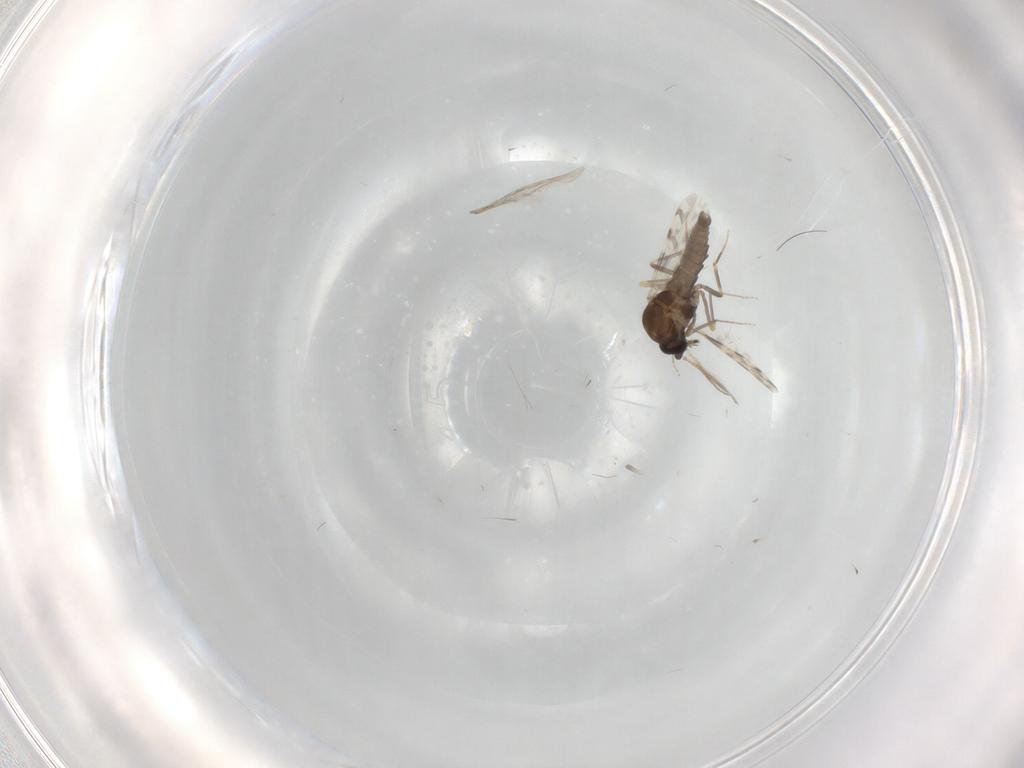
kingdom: Animalia
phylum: Arthropoda
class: Insecta
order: Diptera
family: Ceratopogonidae
